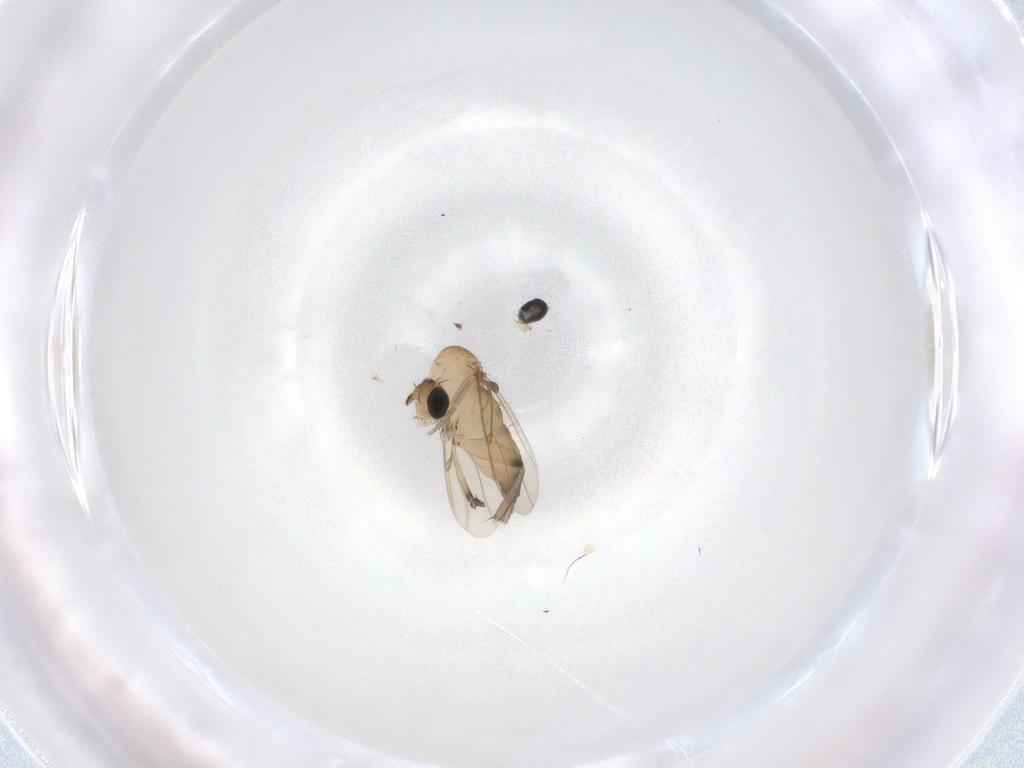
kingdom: Animalia
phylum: Arthropoda
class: Insecta
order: Diptera
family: Phoridae
